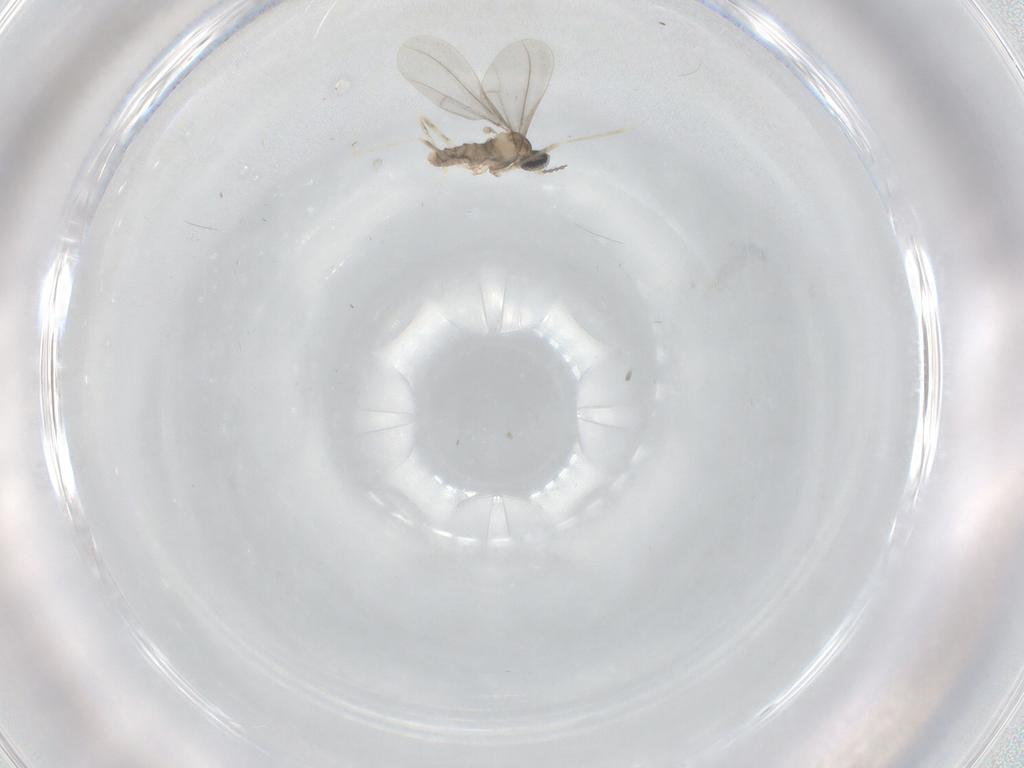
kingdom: Animalia
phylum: Arthropoda
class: Insecta
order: Diptera
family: Cecidomyiidae
